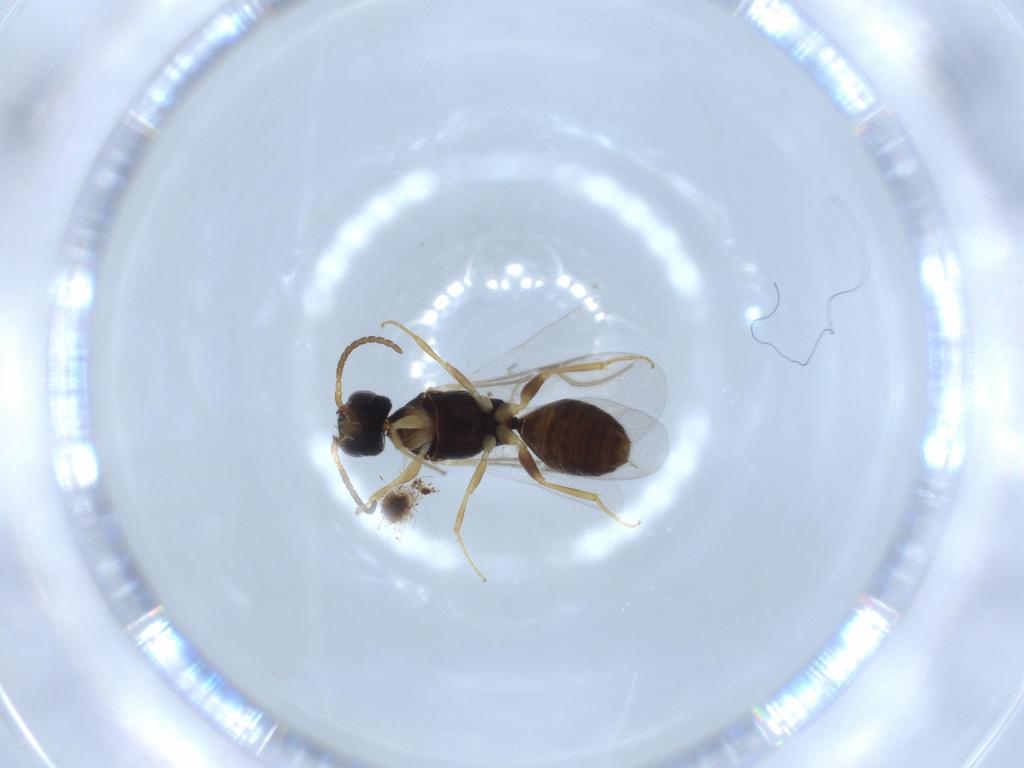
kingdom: Animalia
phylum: Arthropoda
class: Insecta
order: Hymenoptera
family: Bethylidae
